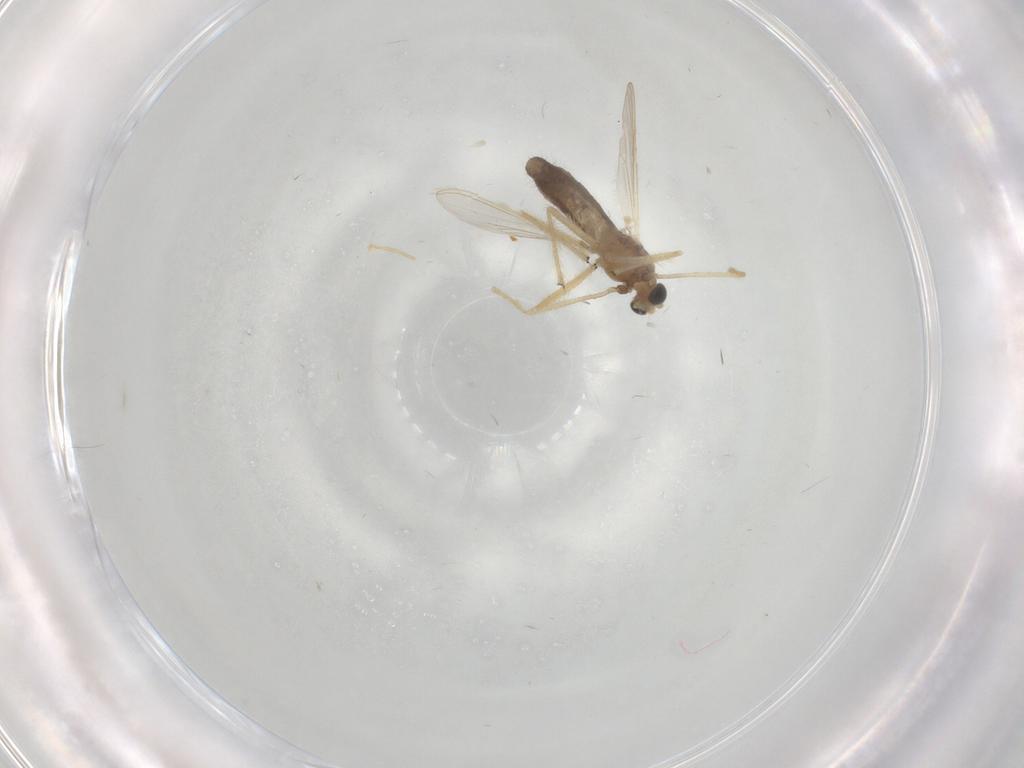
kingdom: Animalia
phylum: Arthropoda
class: Insecta
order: Diptera
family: Chironomidae
